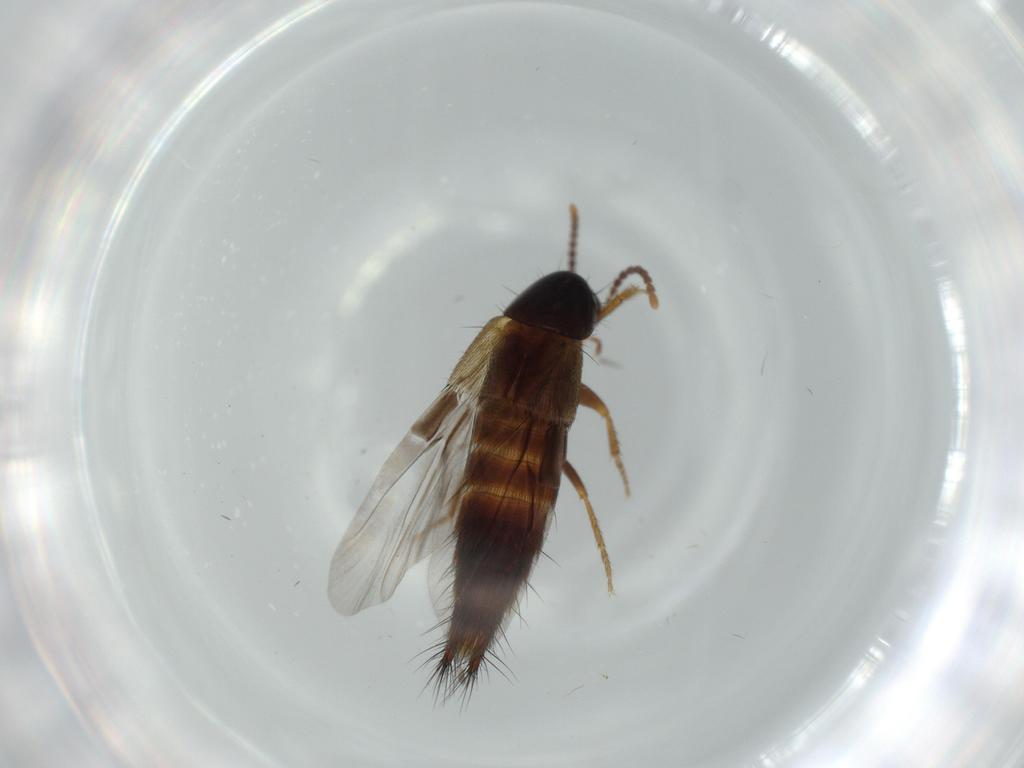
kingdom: Animalia
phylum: Arthropoda
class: Insecta
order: Coleoptera
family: Staphylinidae
